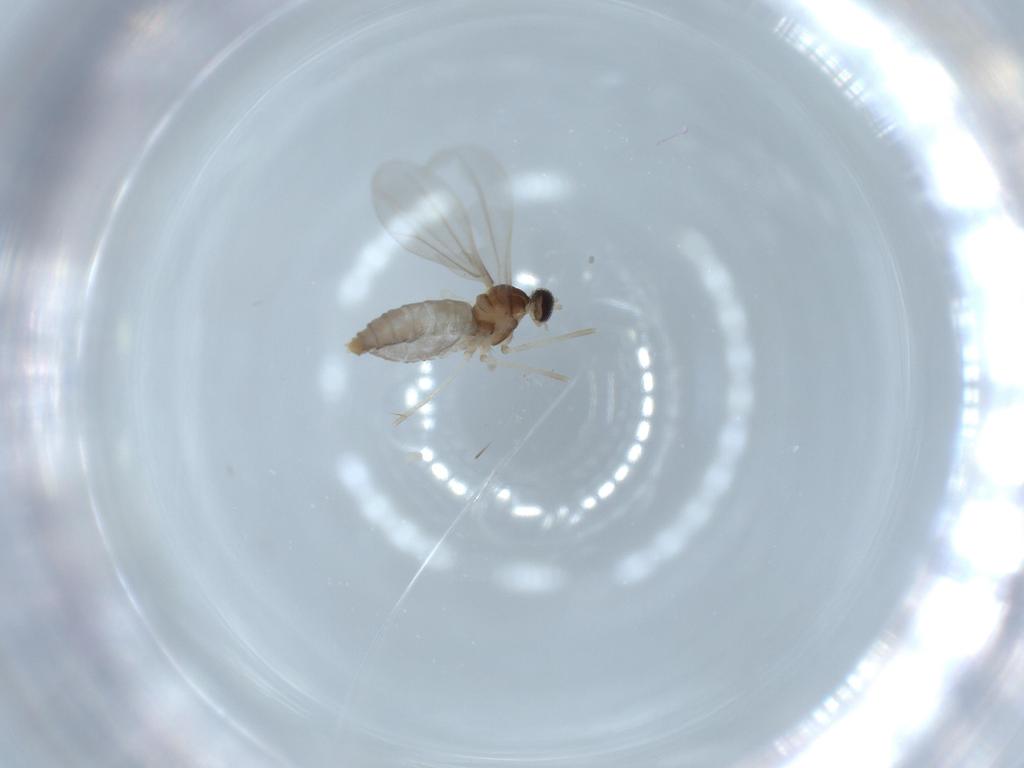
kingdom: Animalia
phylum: Arthropoda
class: Insecta
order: Diptera
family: Cecidomyiidae
